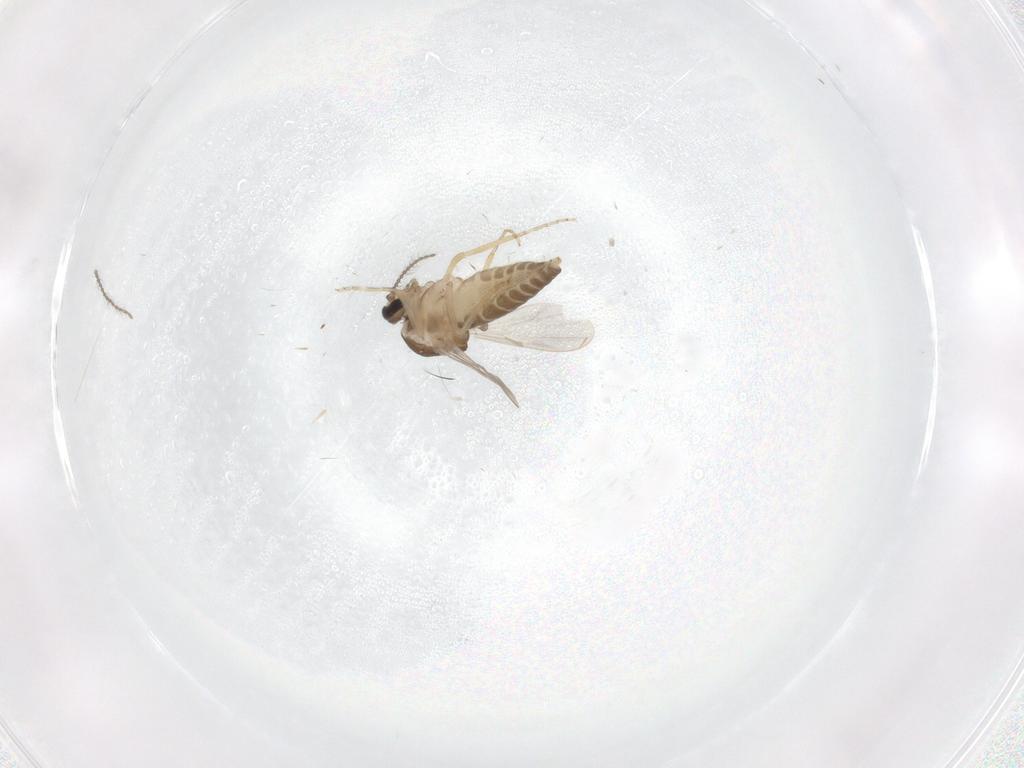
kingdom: Animalia
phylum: Arthropoda
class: Insecta
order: Diptera
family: Ceratopogonidae
